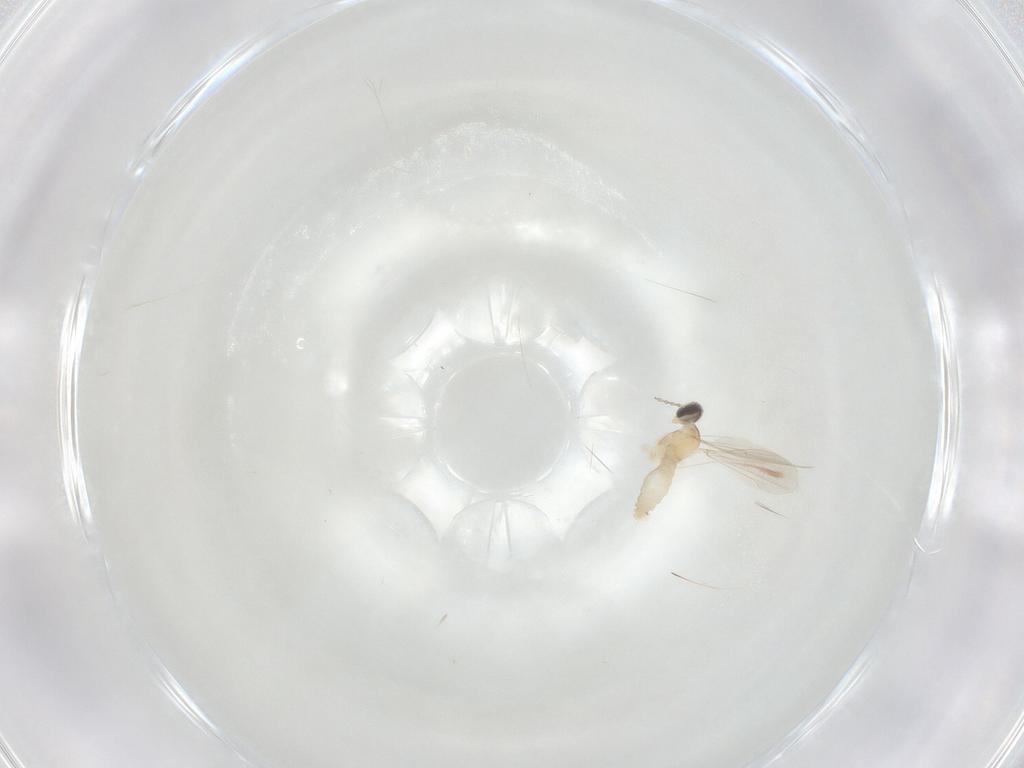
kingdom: Animalia
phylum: Arthropoda
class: Insecta
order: Diptera
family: Cecidomyiidae
